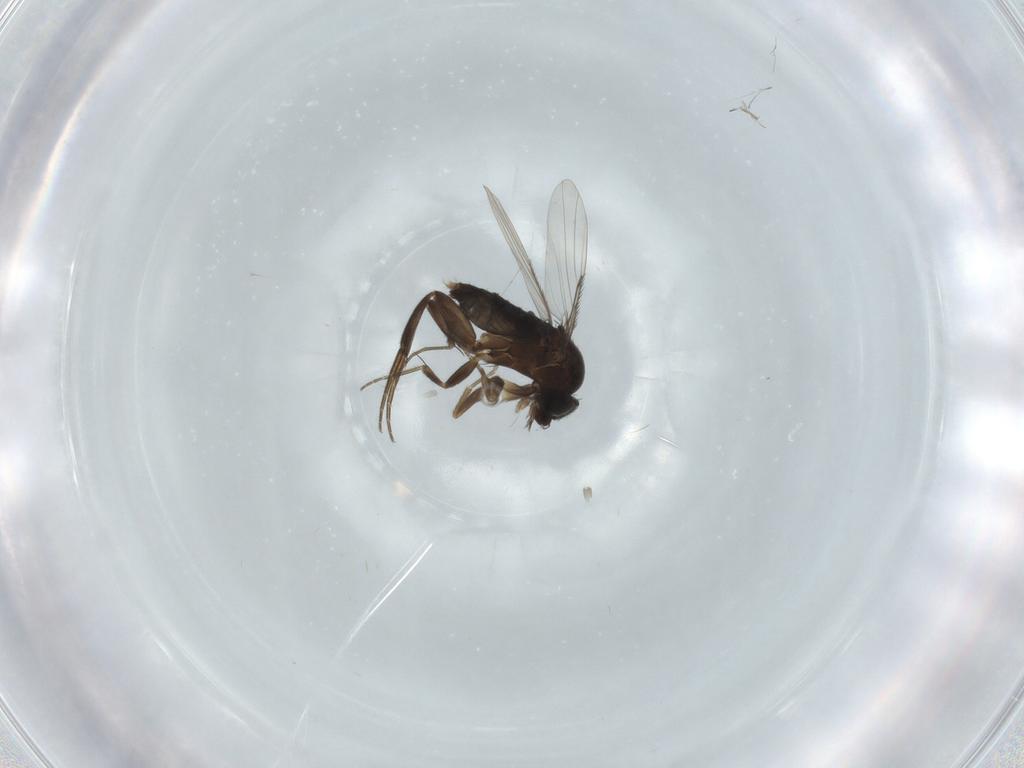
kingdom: Animalia
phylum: Arthropoda
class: Insecta
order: Diptera
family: Phoridae
